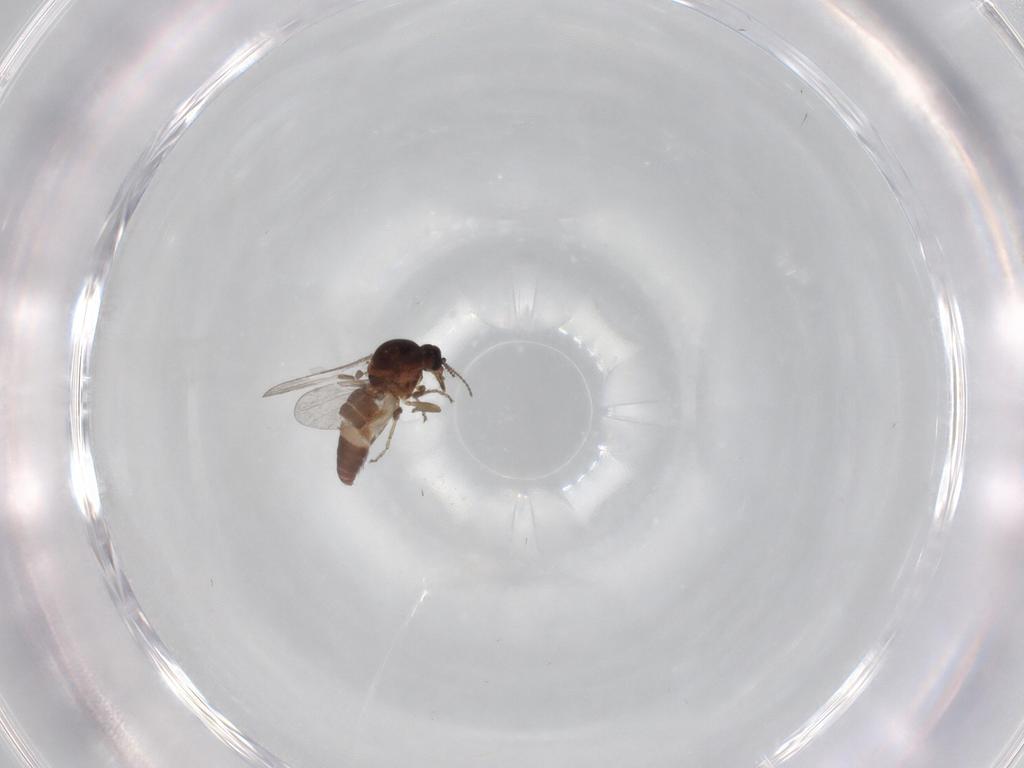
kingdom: Animalia
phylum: Arthropoda
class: Insecta
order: Diptera
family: Ceratopogonidae
